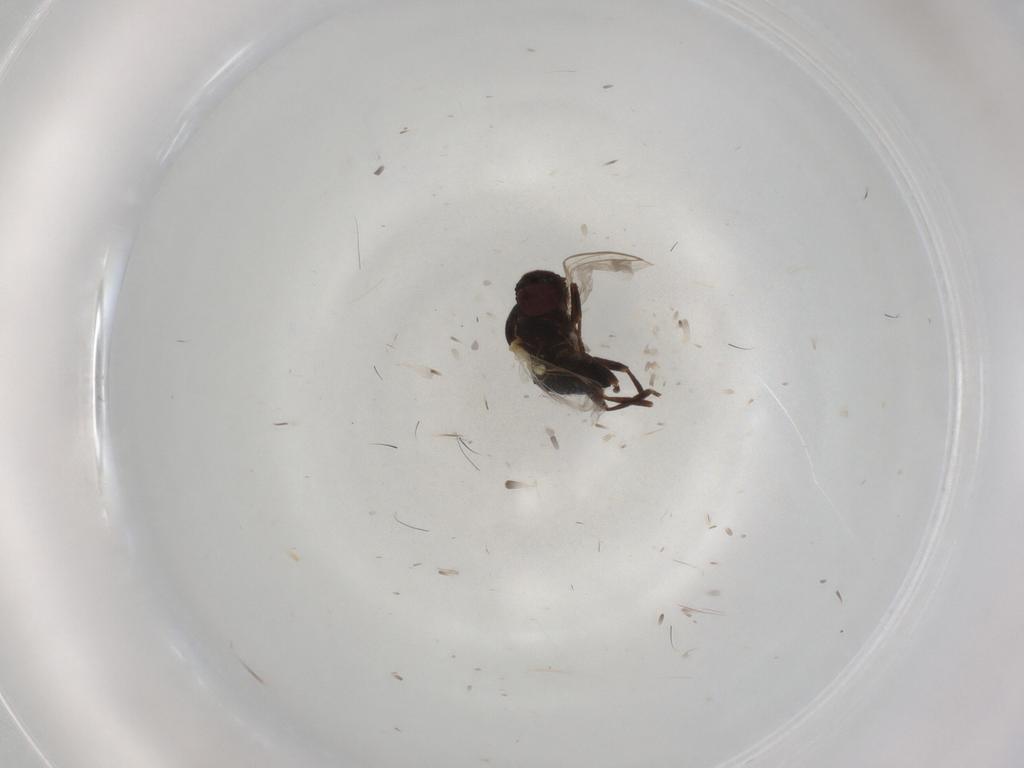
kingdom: Animalia
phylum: Arthropoda
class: Insecta
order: Diptera
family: Agromyzidae
